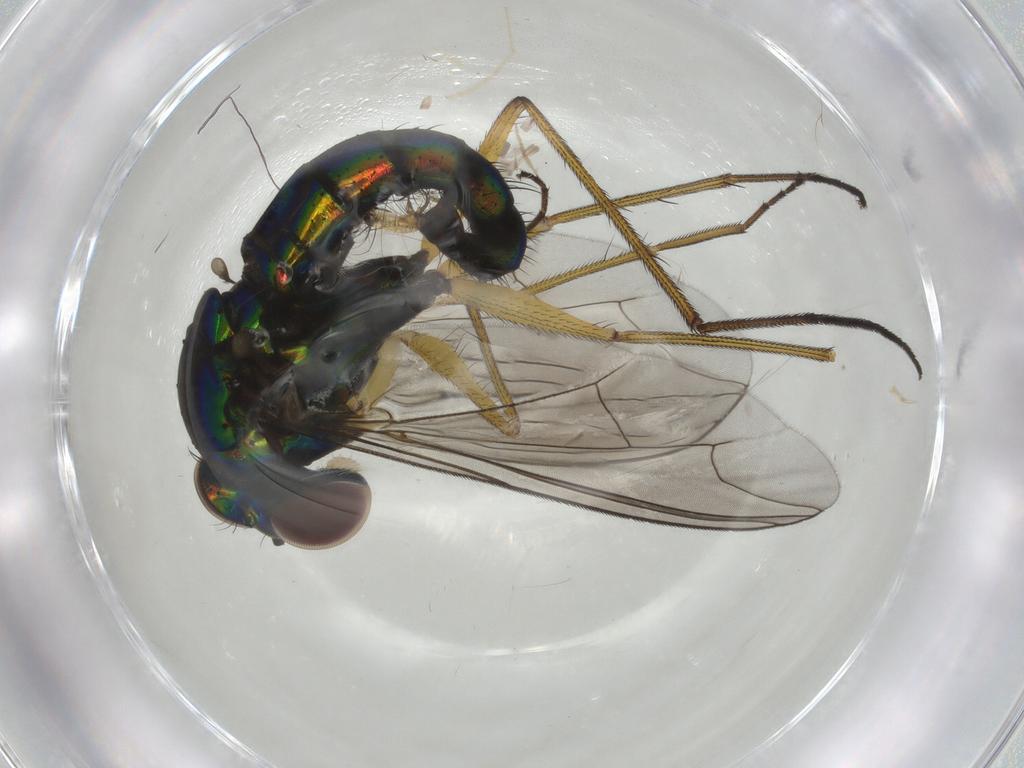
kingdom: Animalia
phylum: Arthropoda
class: Insecta
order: Diptera
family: Dolichopodidae
